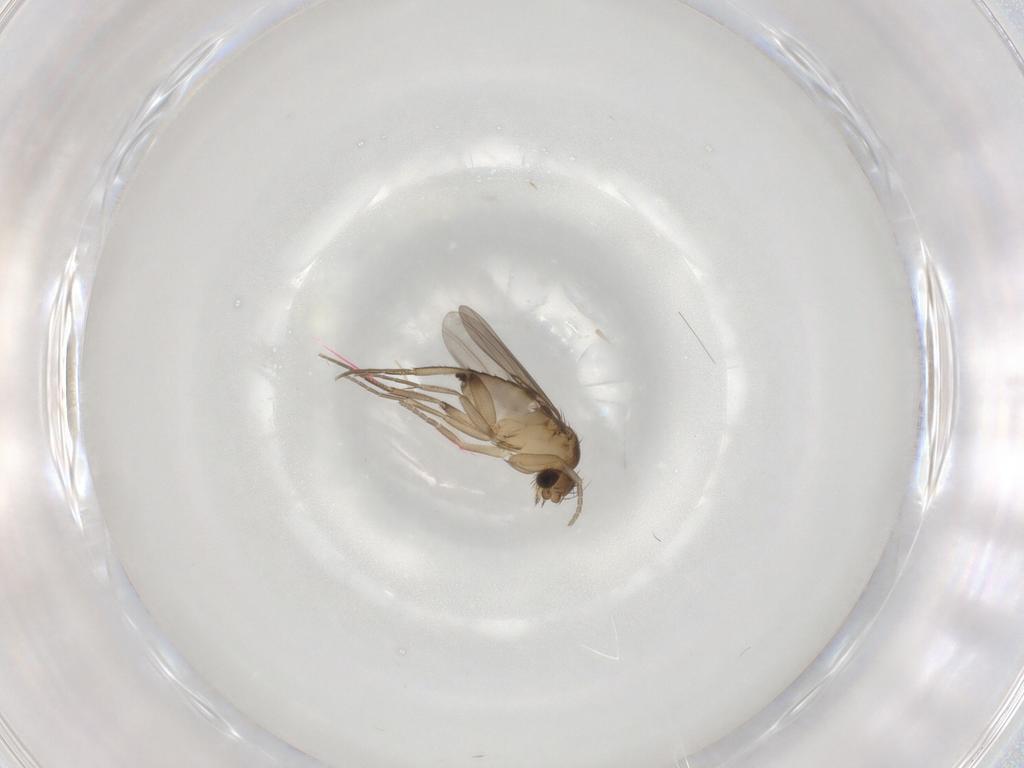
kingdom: Animalia
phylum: Arthropoda
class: Insecta
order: Diptera
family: Phoridae
